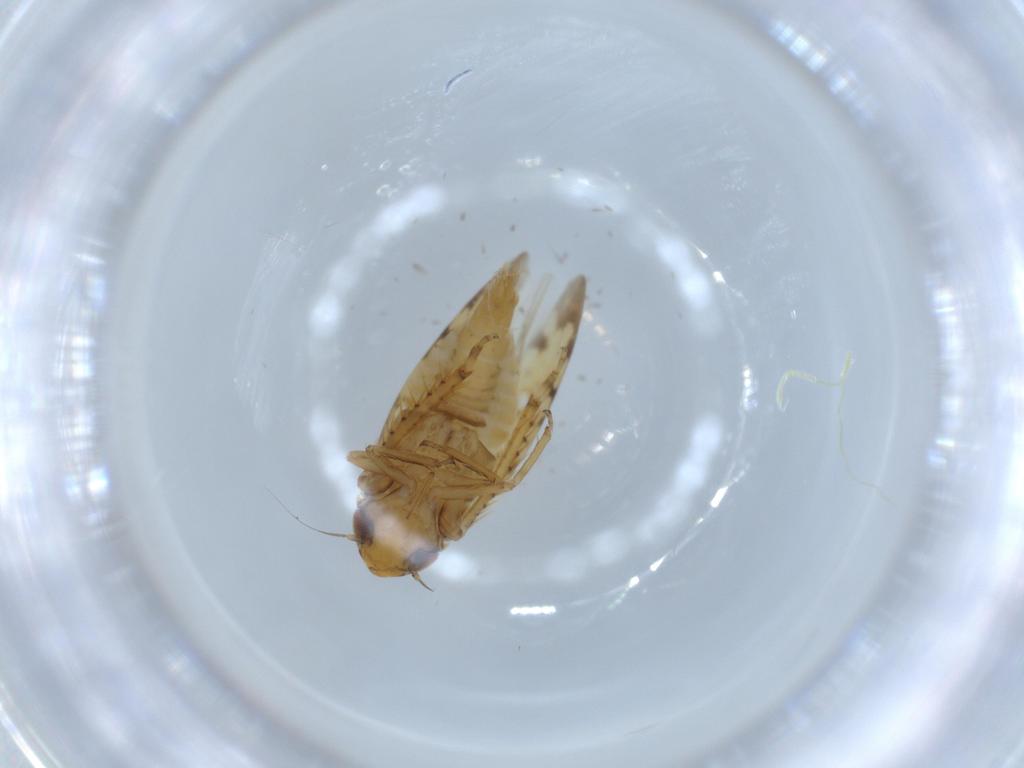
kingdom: Animalia
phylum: Arthropoda
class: Insecta
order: Hemiptera
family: Cicadellidae
